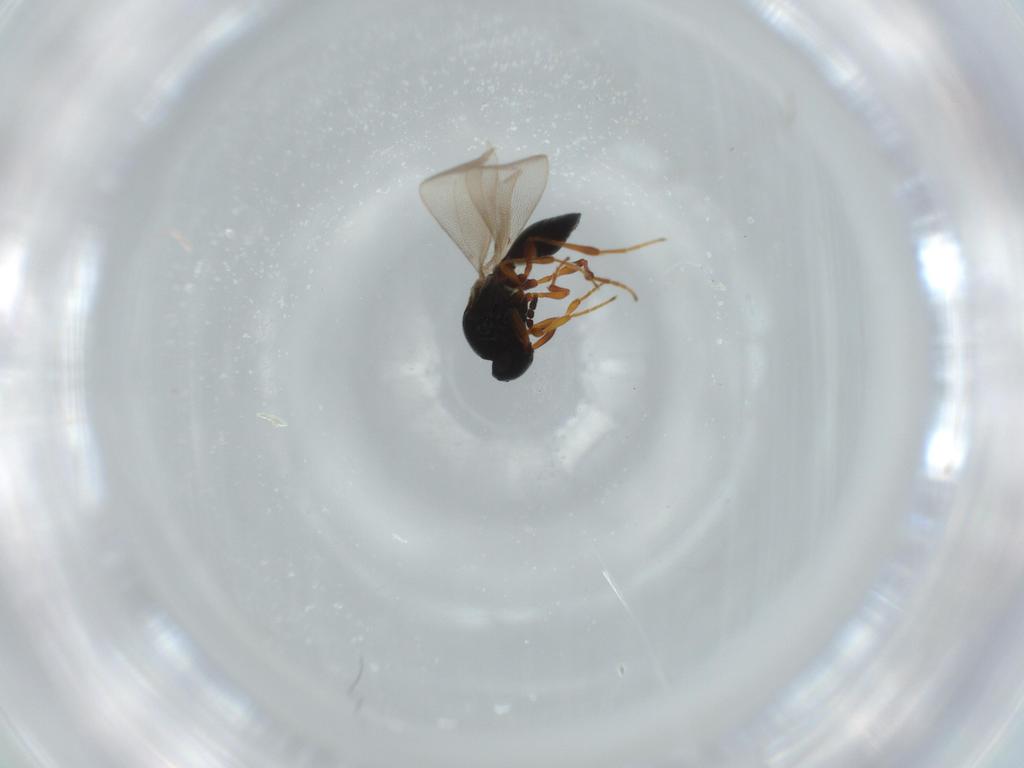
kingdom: Animalia
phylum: Arthropoda
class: Insecta
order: Hymenoptera
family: Platygastridae
